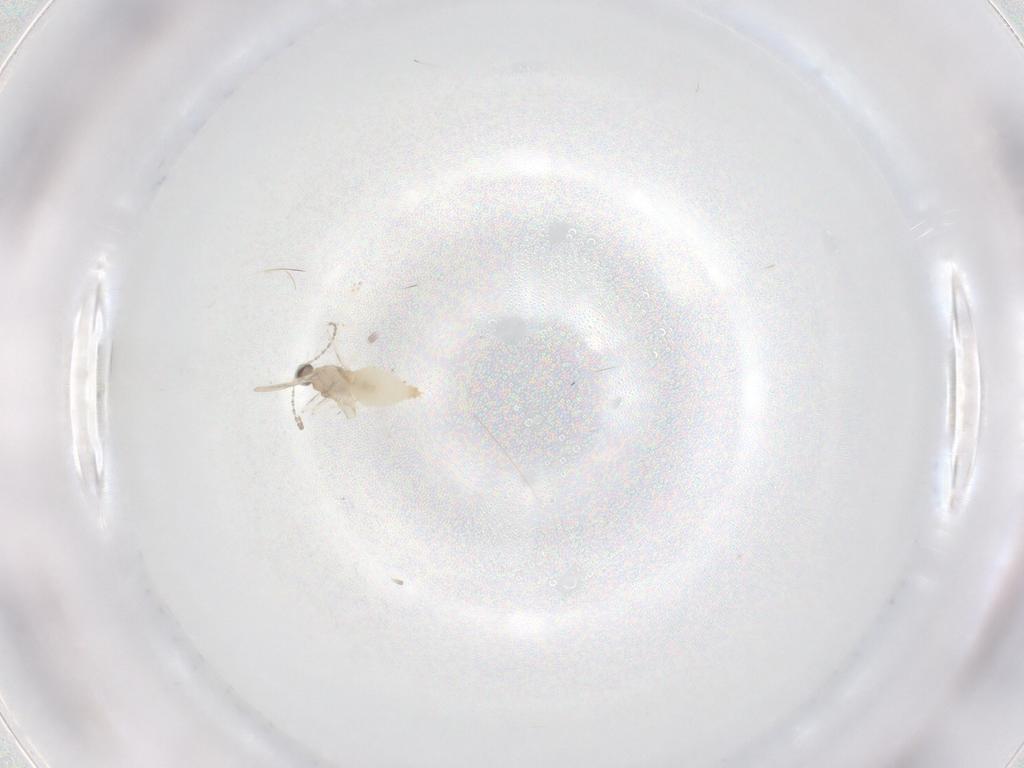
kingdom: Animalia
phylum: Arthropoda
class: Insecta
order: Diptera
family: Cecidomyiidae
